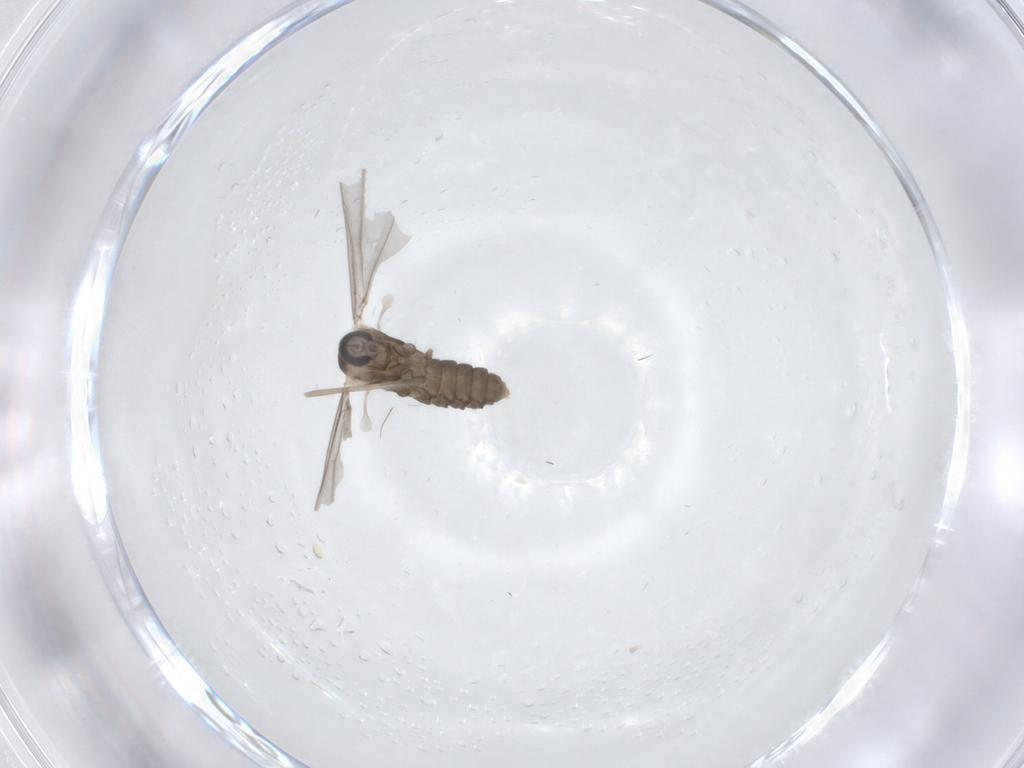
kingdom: Animalia
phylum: Arthropoda
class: Insecta
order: Diptera
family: Cecidomyiidae
